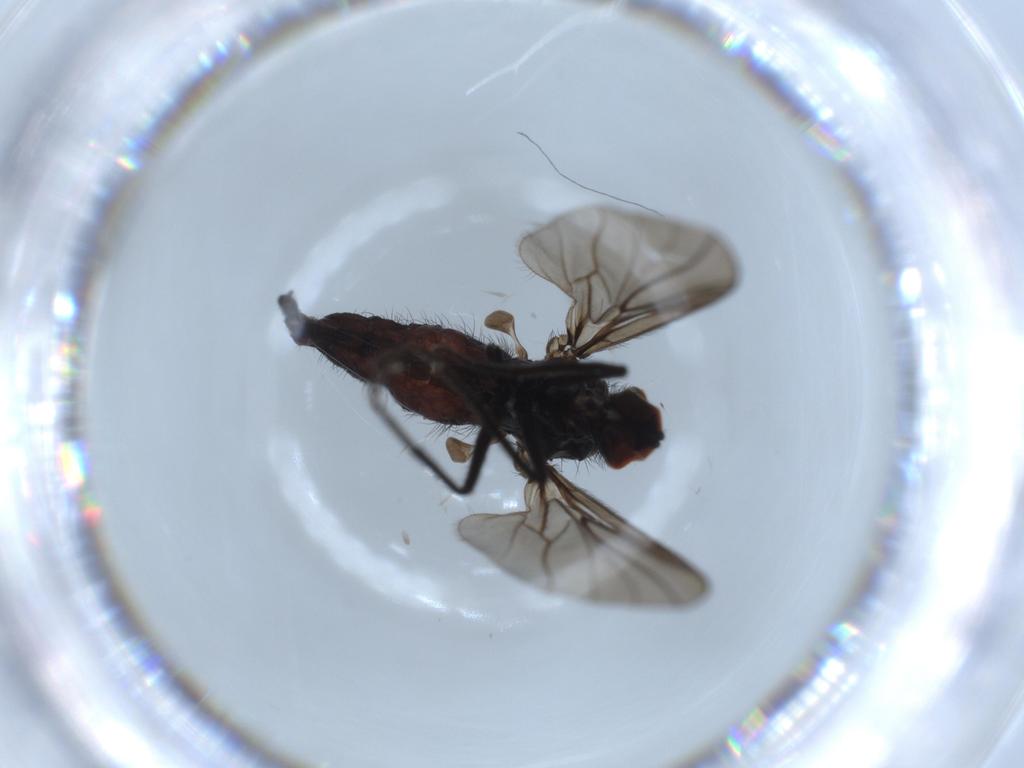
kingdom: Animalia
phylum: Arthropoda
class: Insecta
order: Diptera
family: Hybotidae
